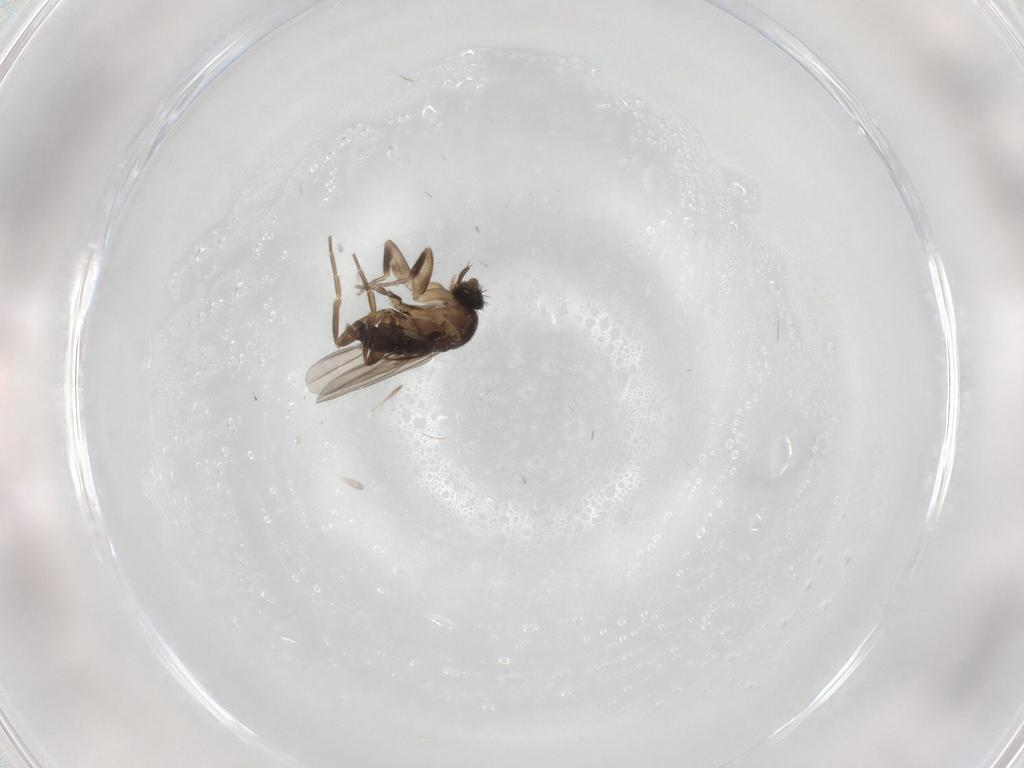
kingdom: Animalia
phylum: Arthropoda
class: Insecta
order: Diptera
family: Phoridae
